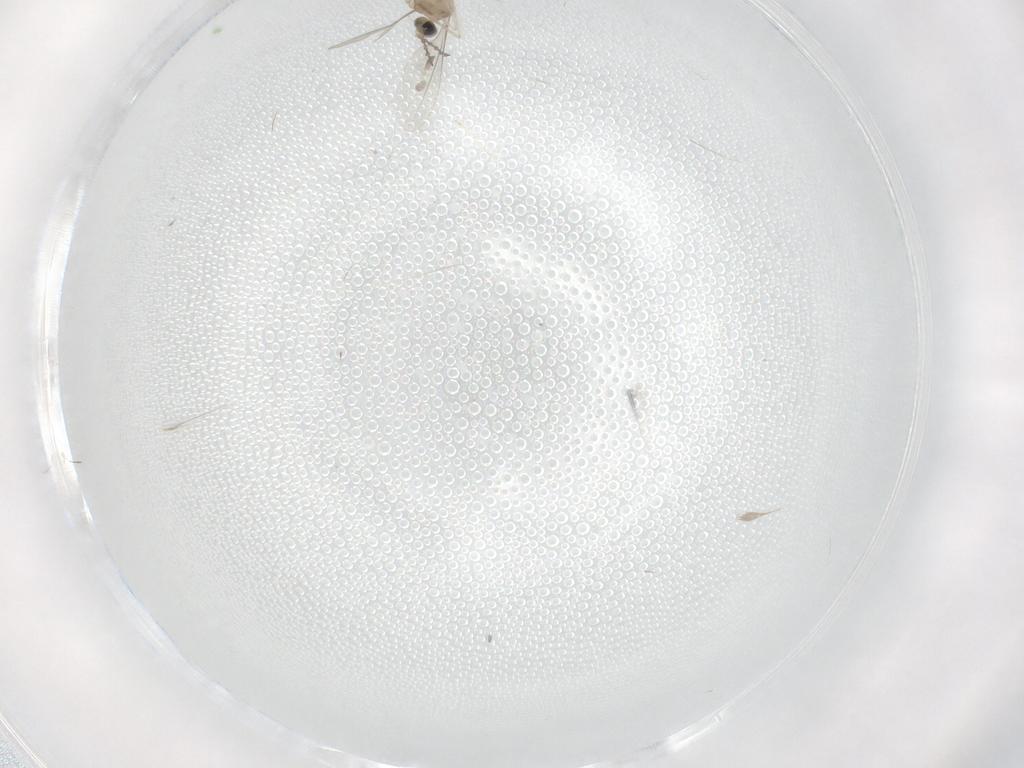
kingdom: Animalia
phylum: Arthropoda
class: Insecta
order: Diptera
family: Cecidomyiidae
